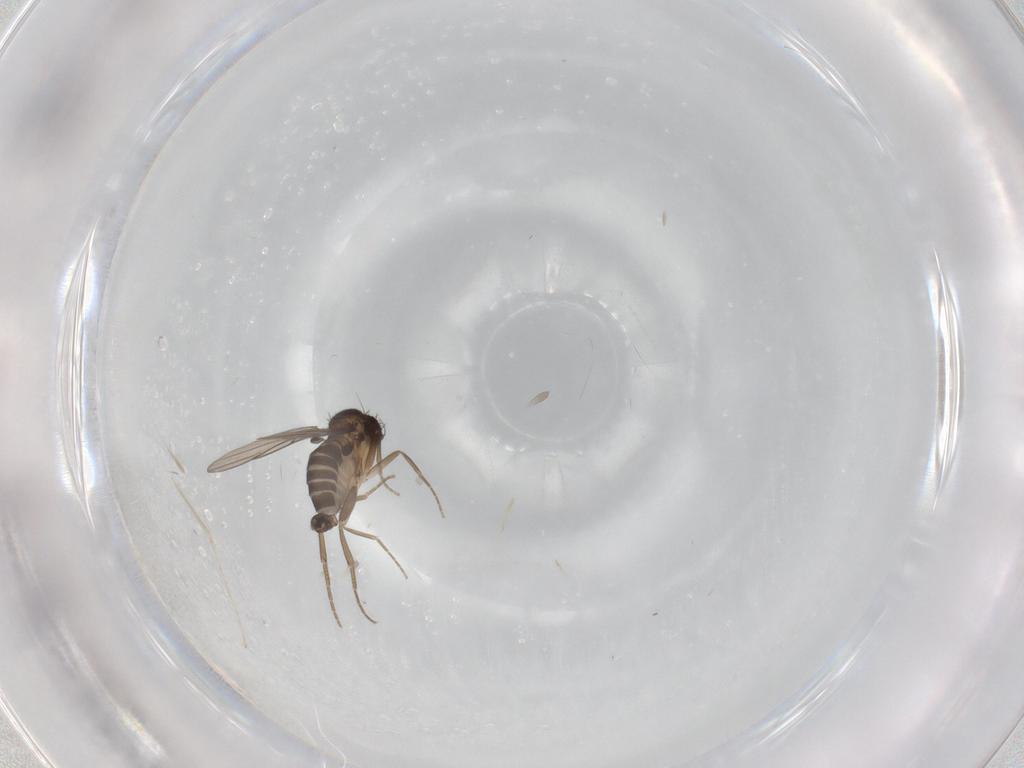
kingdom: Animalia
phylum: Arthropoda
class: Insecta
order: Diptera
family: Phoridae
